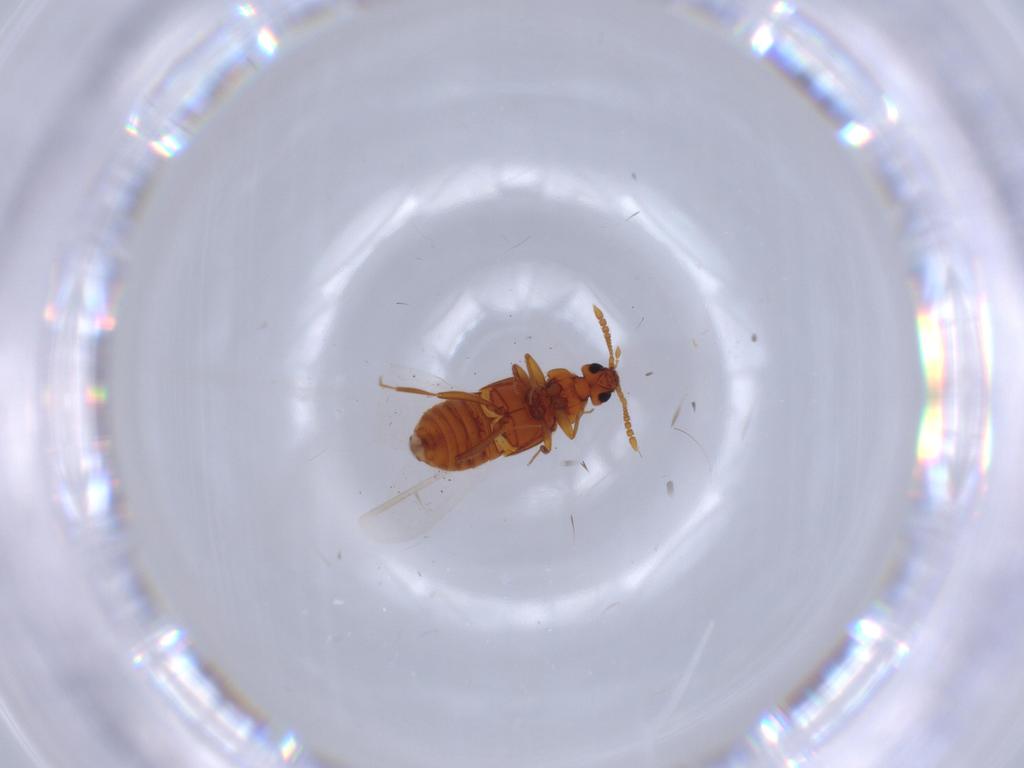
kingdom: Animalia
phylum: Arthropoda
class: Insecta
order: Coleoptera
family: Staphylinidae
